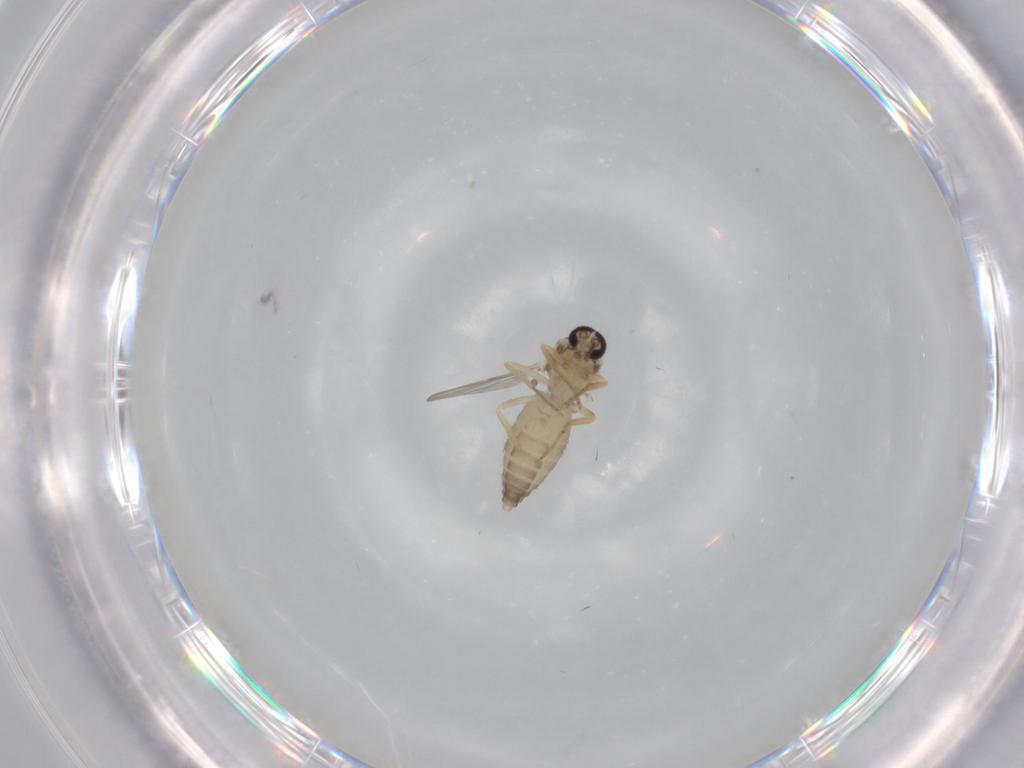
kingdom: Animalia
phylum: Arthropoda
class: Insecta
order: Diptera
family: Ceratopogonidae
